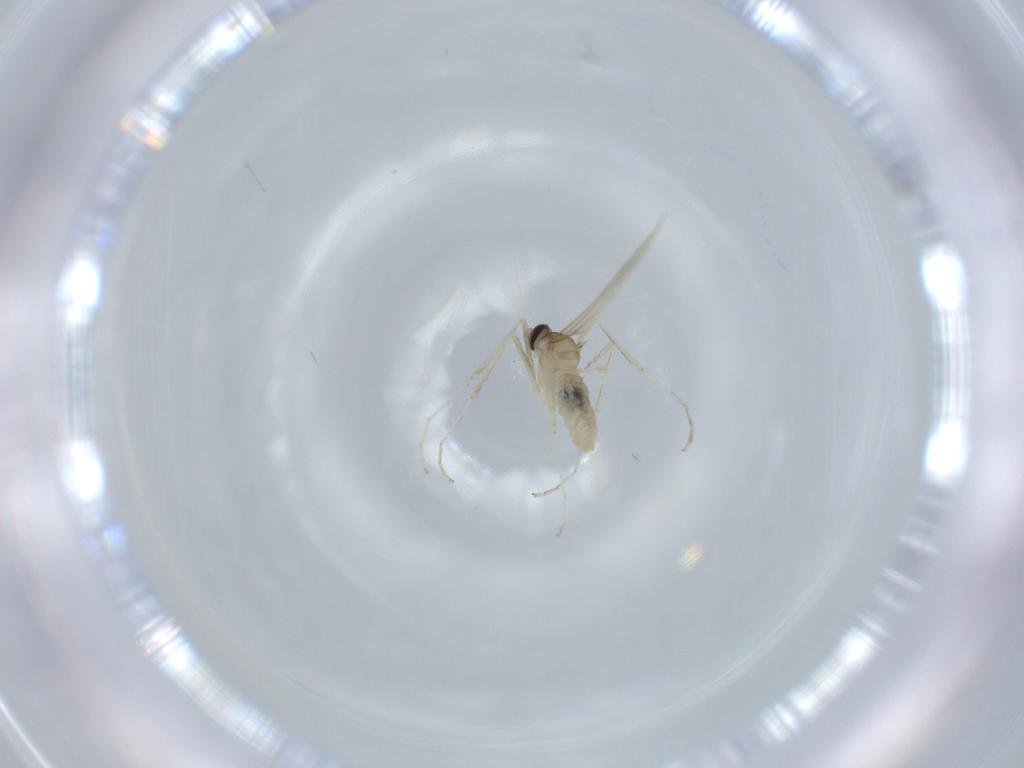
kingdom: Animalia
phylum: Arthropoda
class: Insecta
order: Diptera
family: Cecidomyiidae
